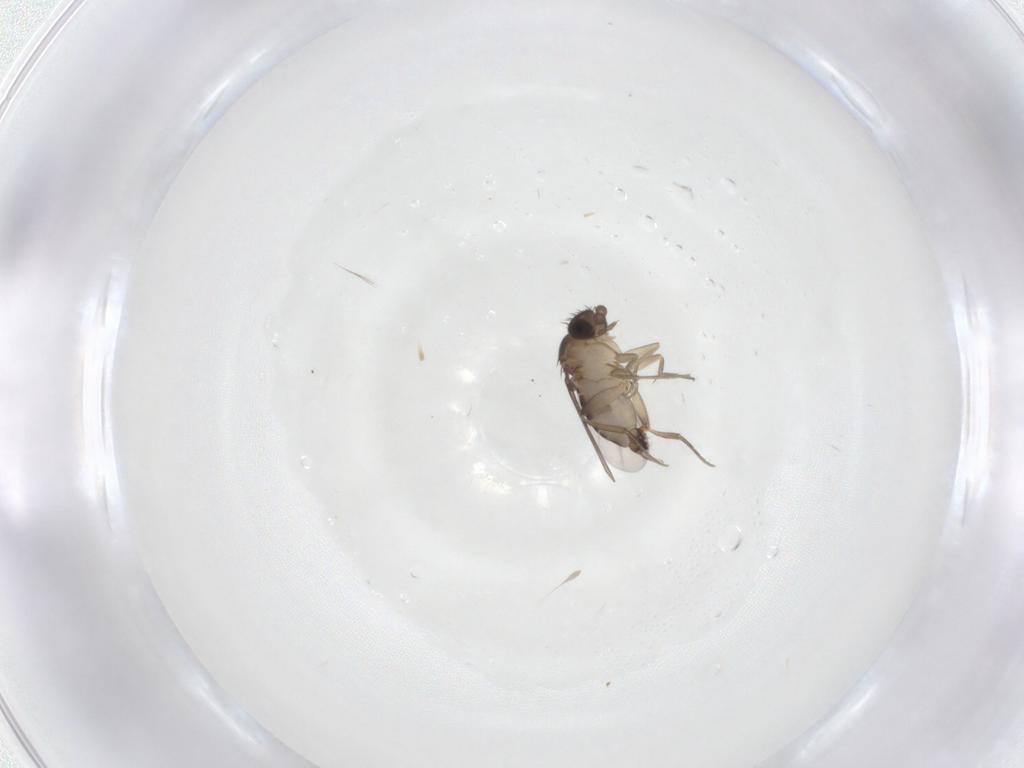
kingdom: Animalia
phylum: Arthropoda
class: Insecta
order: Diptera
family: Phoridae
